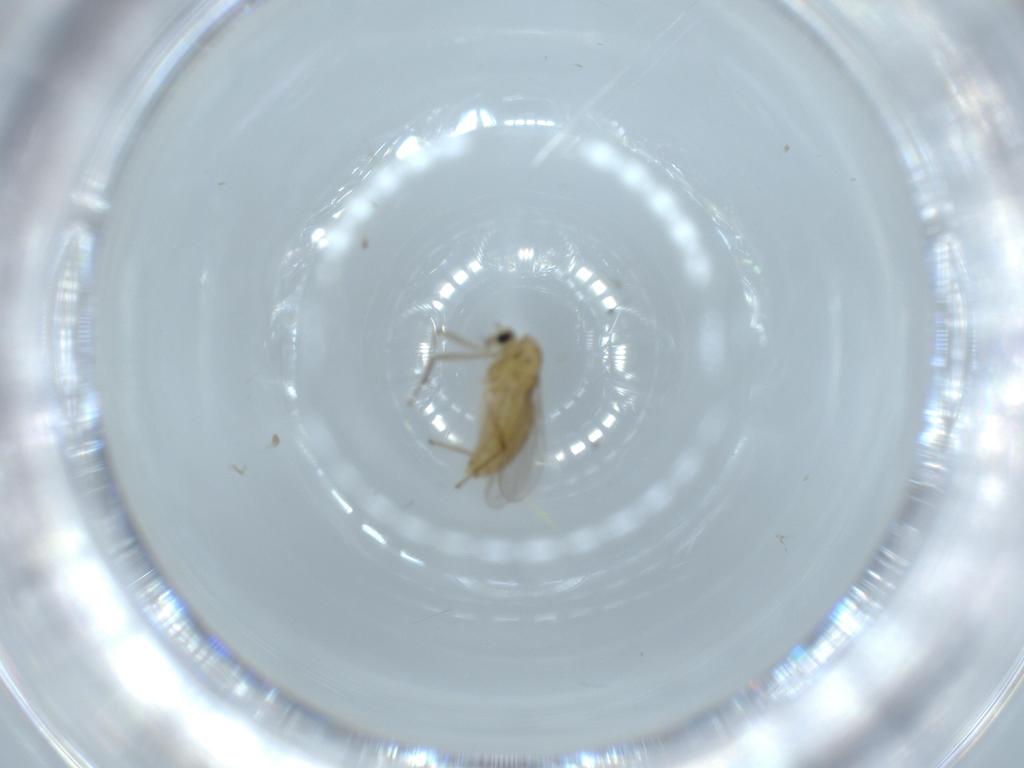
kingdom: Animalia
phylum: Arthropoda
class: Insecta
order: Diptera
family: Chironomidae
